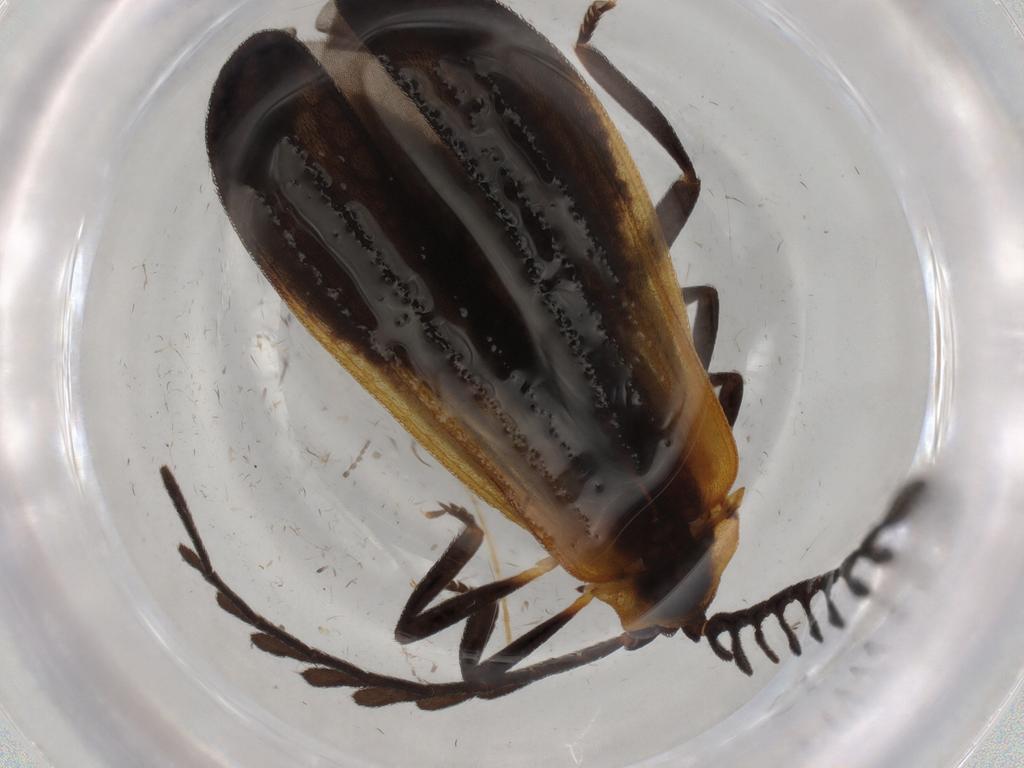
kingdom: Animalia
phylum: Arthropoda
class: Insecta
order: Coleoptera
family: Lycidae
